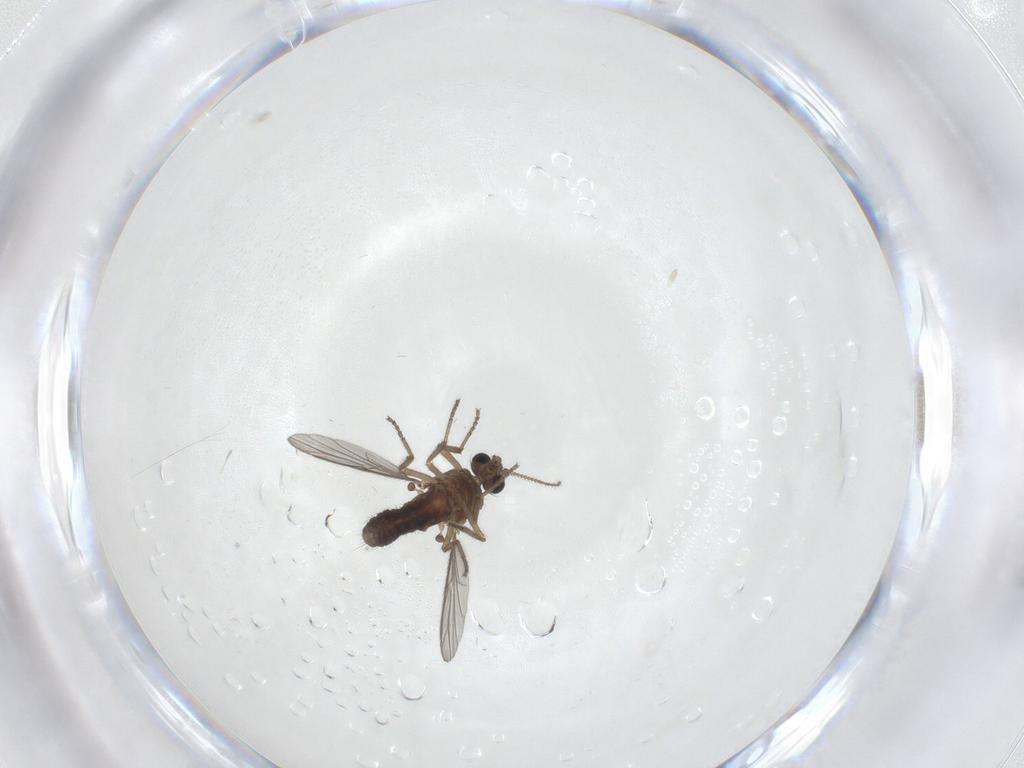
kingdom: Animalia
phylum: Arthropoda
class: Insecta
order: Diptera
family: Ceratopogonidae
